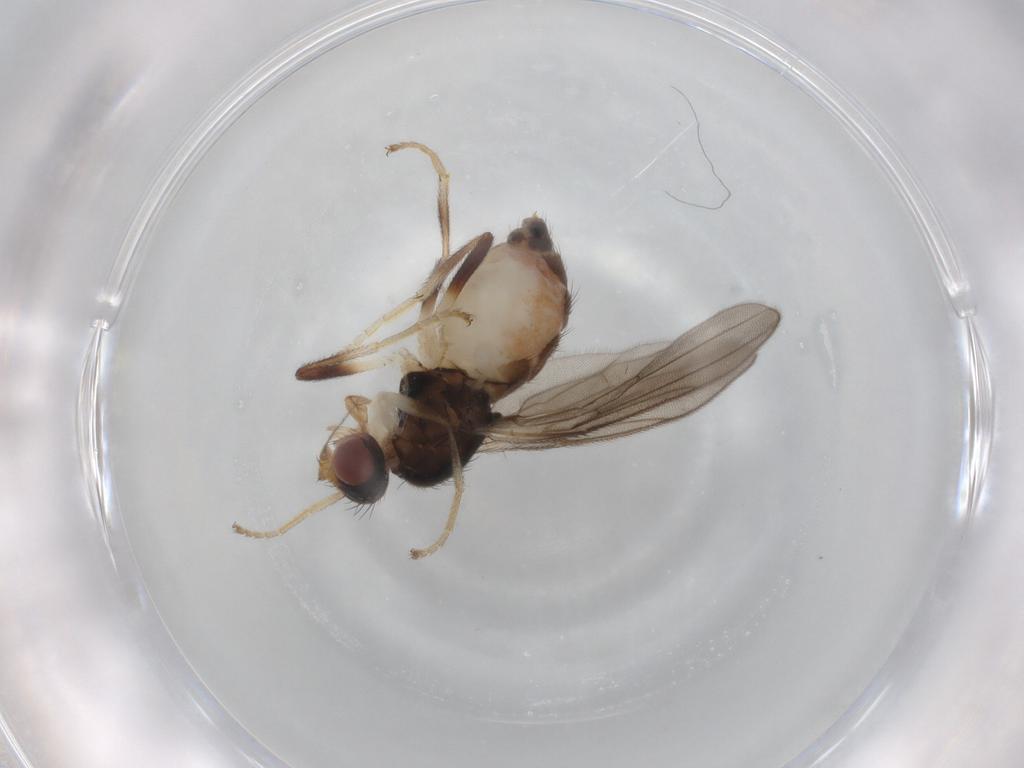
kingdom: Animalia
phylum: Arthropoda
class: Insecta
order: Diptera
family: Chloropidae
